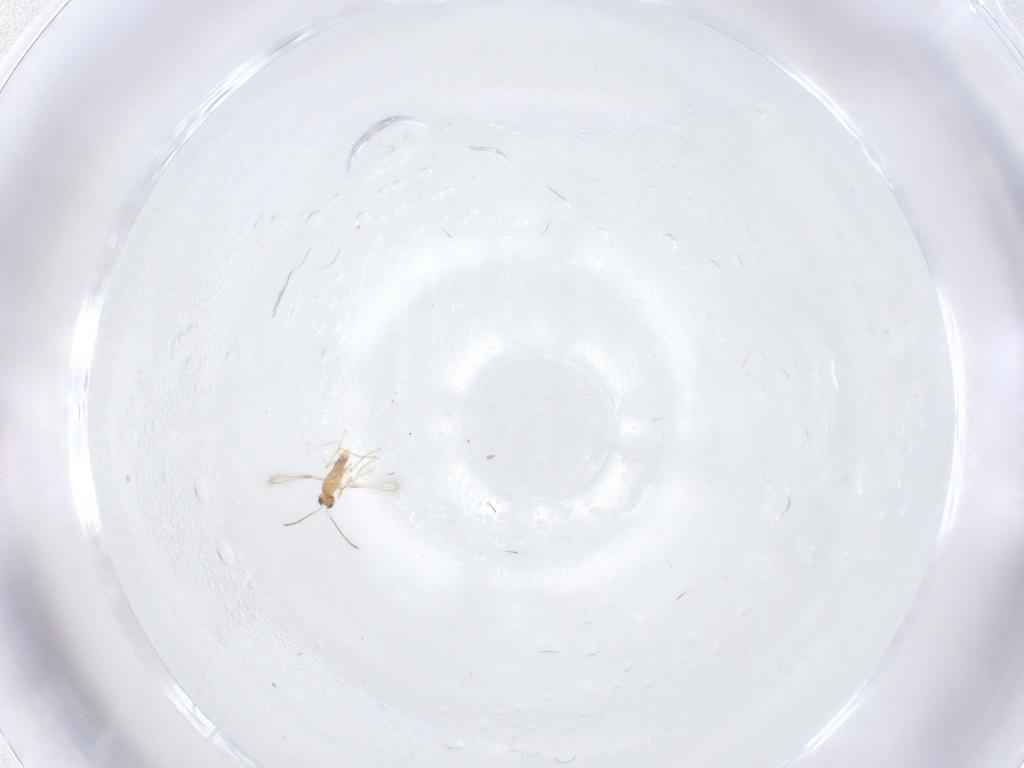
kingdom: Animalia
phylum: Arthropoda
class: Insecta
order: Hymenoptera
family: Mymaridae
